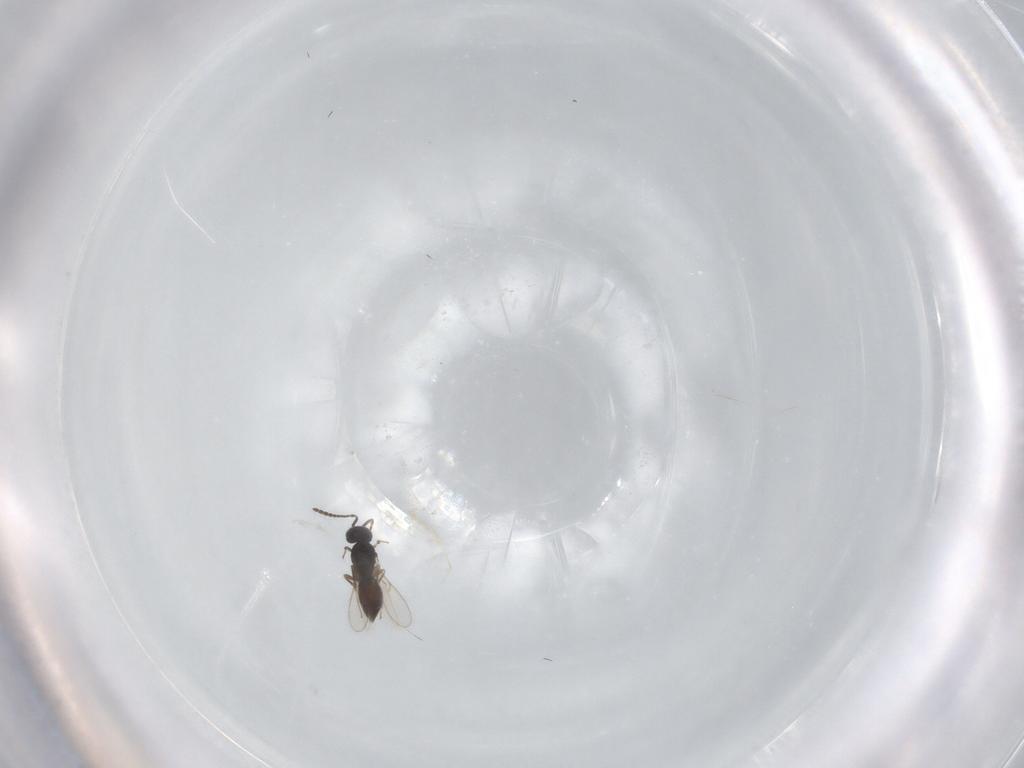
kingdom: Animalia
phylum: Arthropoda
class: Insecta
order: Hymenoptera
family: Scelionidae
